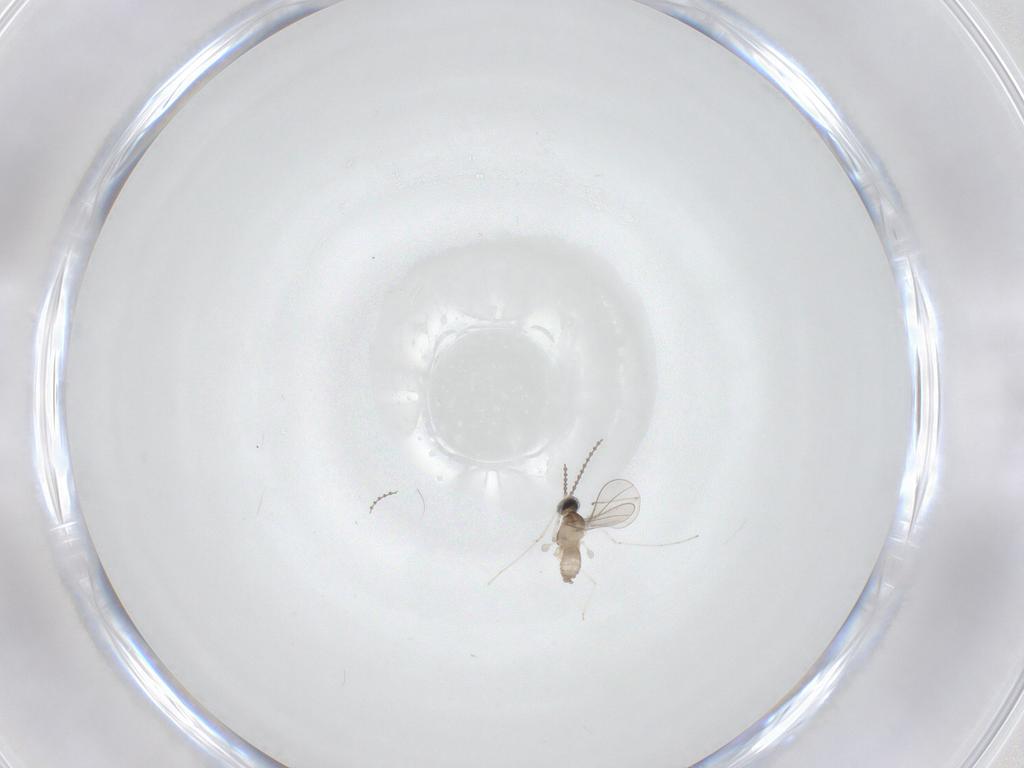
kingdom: Animalia
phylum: Arthropoda
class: Insecta
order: Diptera
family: Cecidomyiidae
